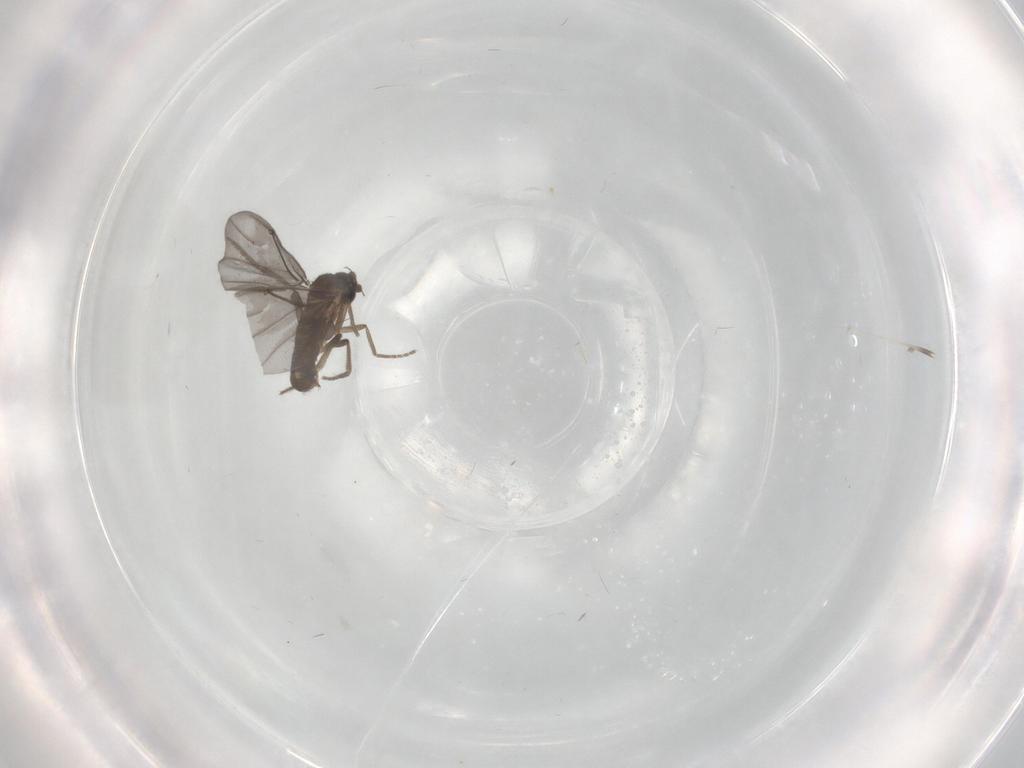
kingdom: Animalia
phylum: Arthropoda
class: Insecta
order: Diptera
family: Phoridae
